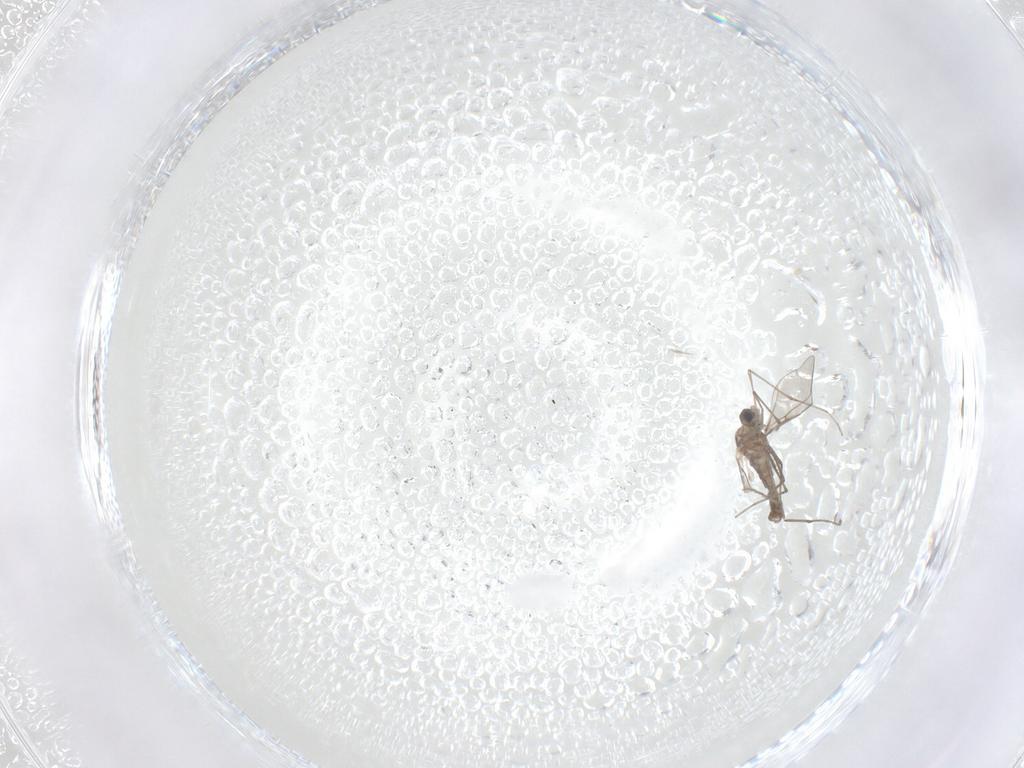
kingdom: Animalia
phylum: Arthropoda
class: Insecta
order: Diptera
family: Cecidomyiidae
